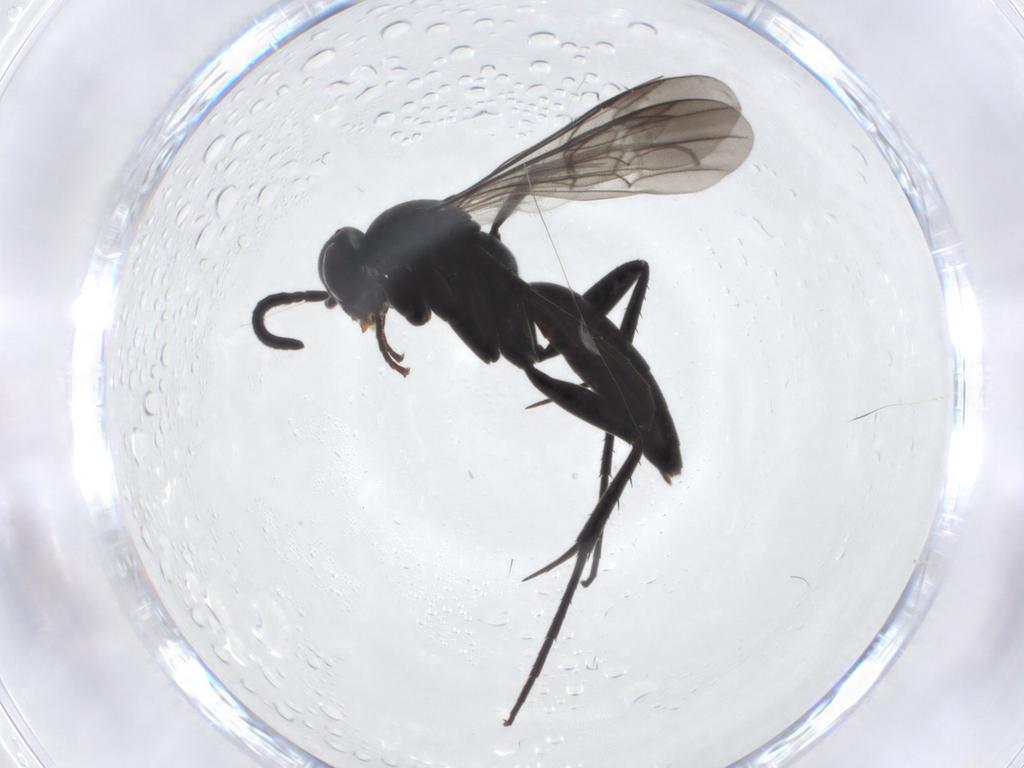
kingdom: Animalia
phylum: Arthropoda
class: Insecta
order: Hymenoptera
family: Pompilidae
